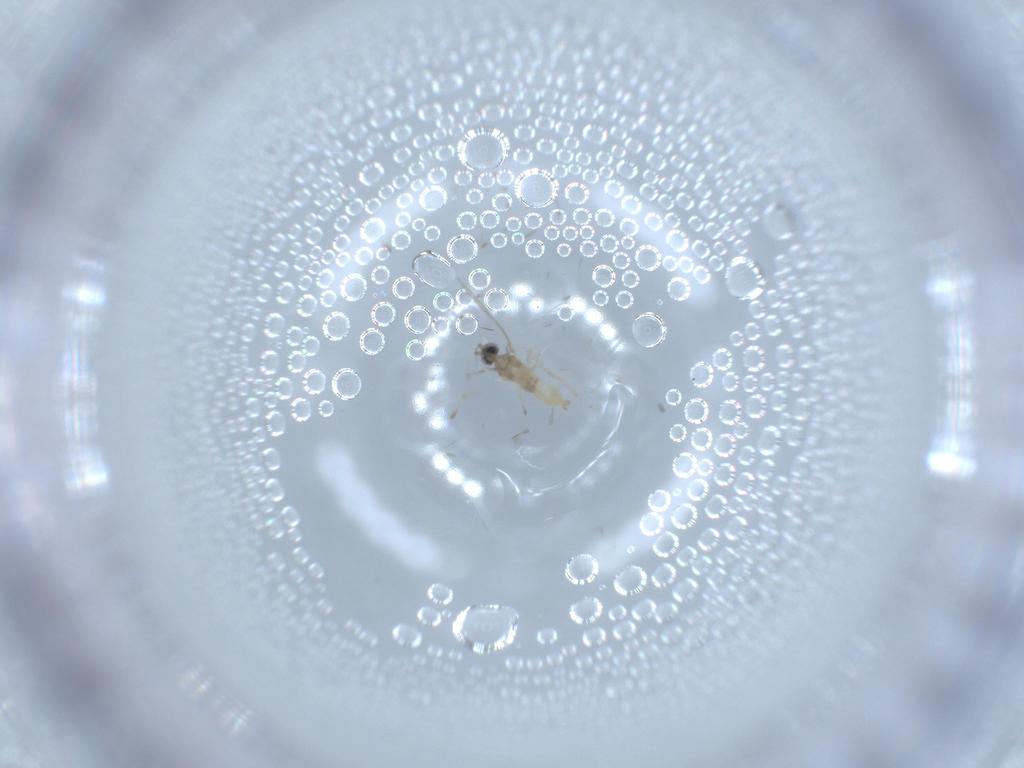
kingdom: Animalia
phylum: Arthropoda
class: Insecta
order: Diptera
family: Cecidomyiidae
